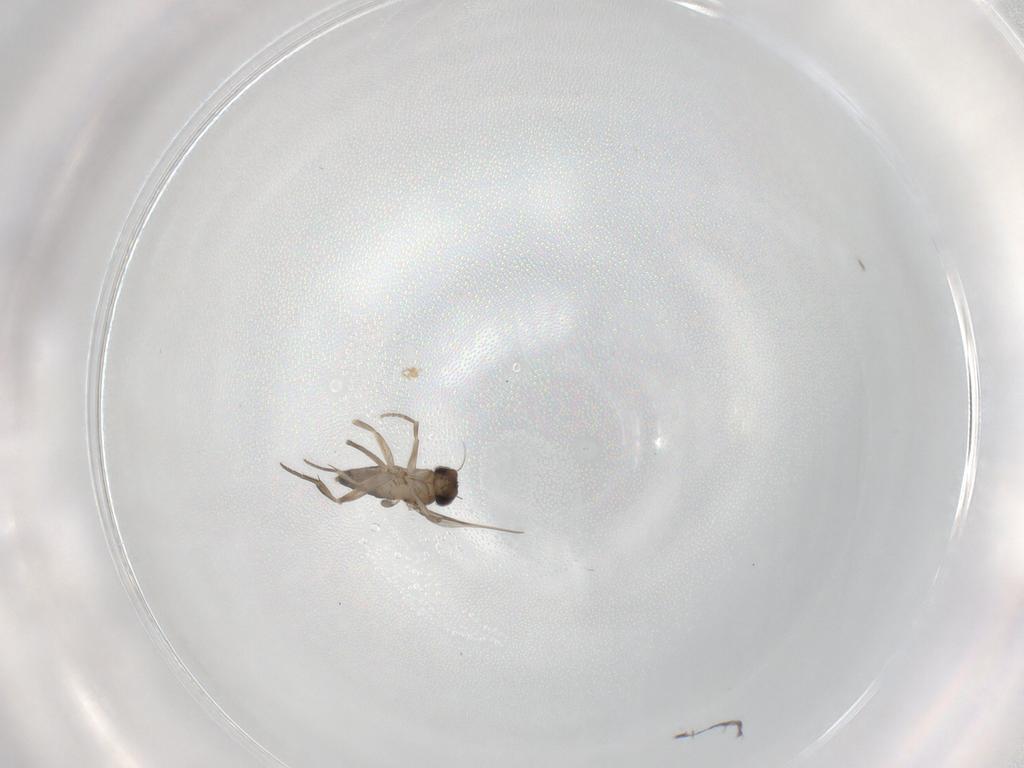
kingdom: Animalia
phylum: Arthropoda
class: Insecta
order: Diptera
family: Phoridae
